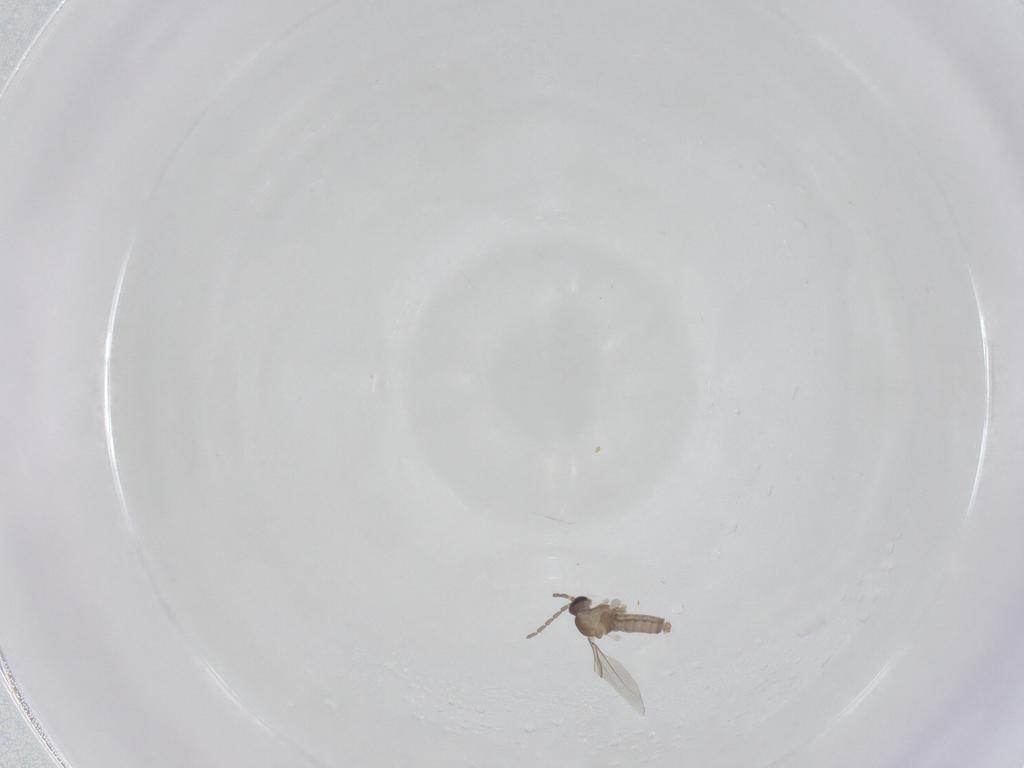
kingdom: Animalia
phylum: Arthropoda
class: Insecta
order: Diptera
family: Cecidomyiidae
